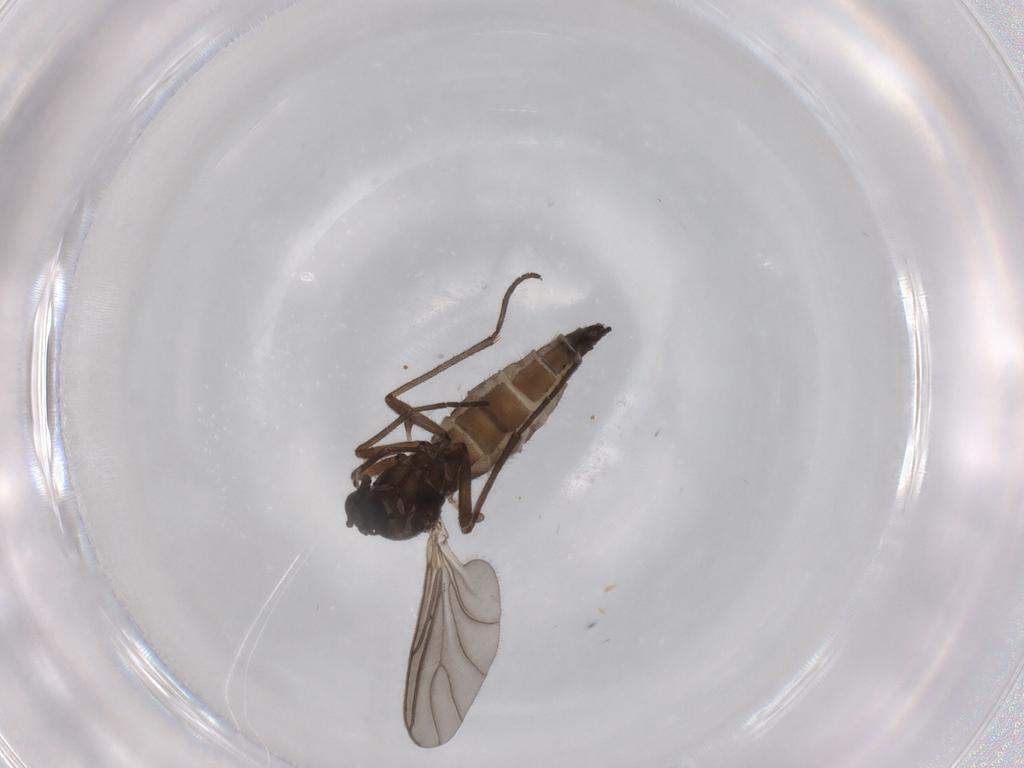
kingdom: Animalia
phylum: Arthropoda
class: Insecta
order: Diptera
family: Sciaridae
